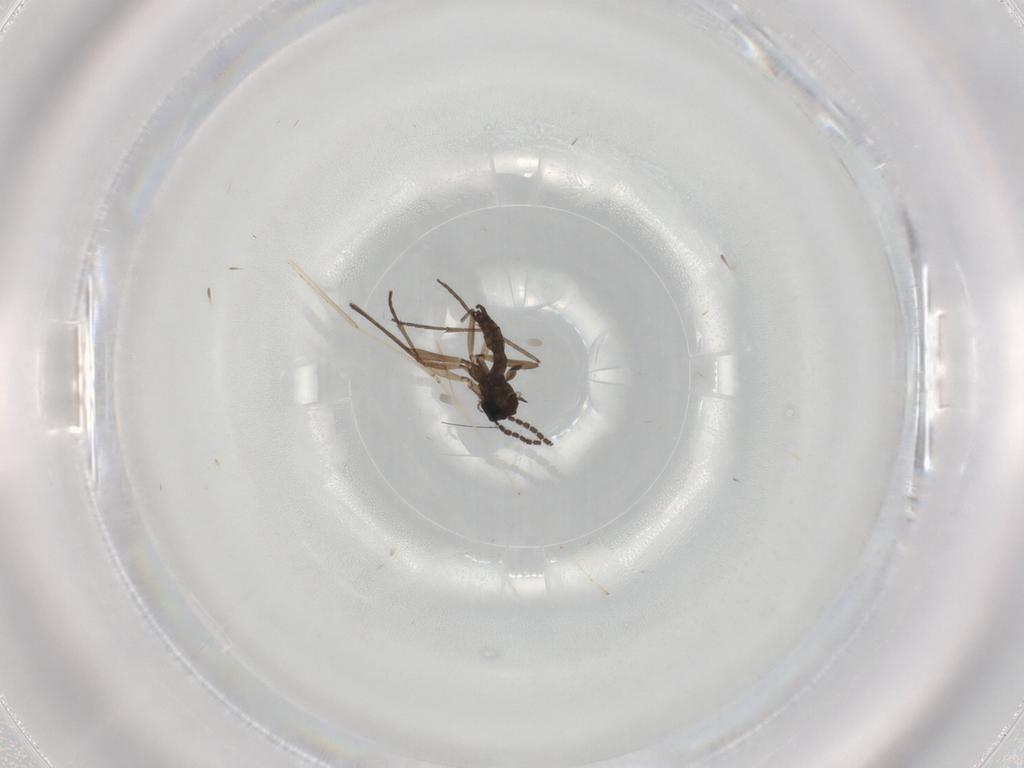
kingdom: Animalia
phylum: Arthropoda
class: Insecta
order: Diptera
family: Sciaridae
